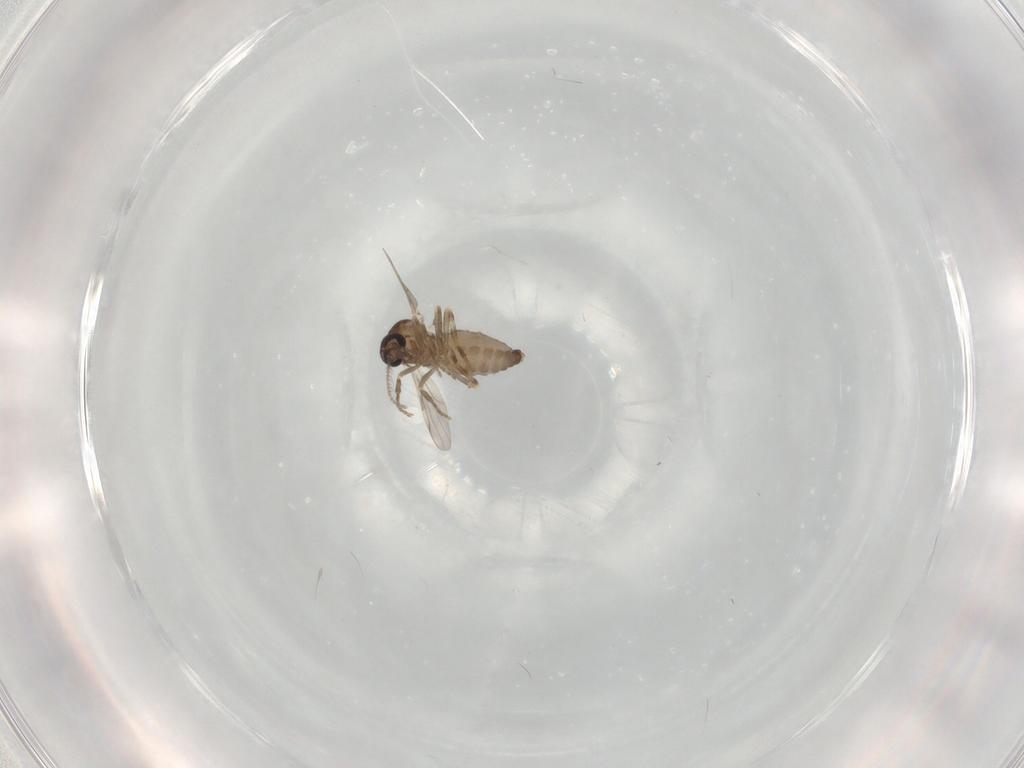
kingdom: Animalia
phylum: Arthropoda
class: Insecta
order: Diptera
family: Ceratopogonidae
